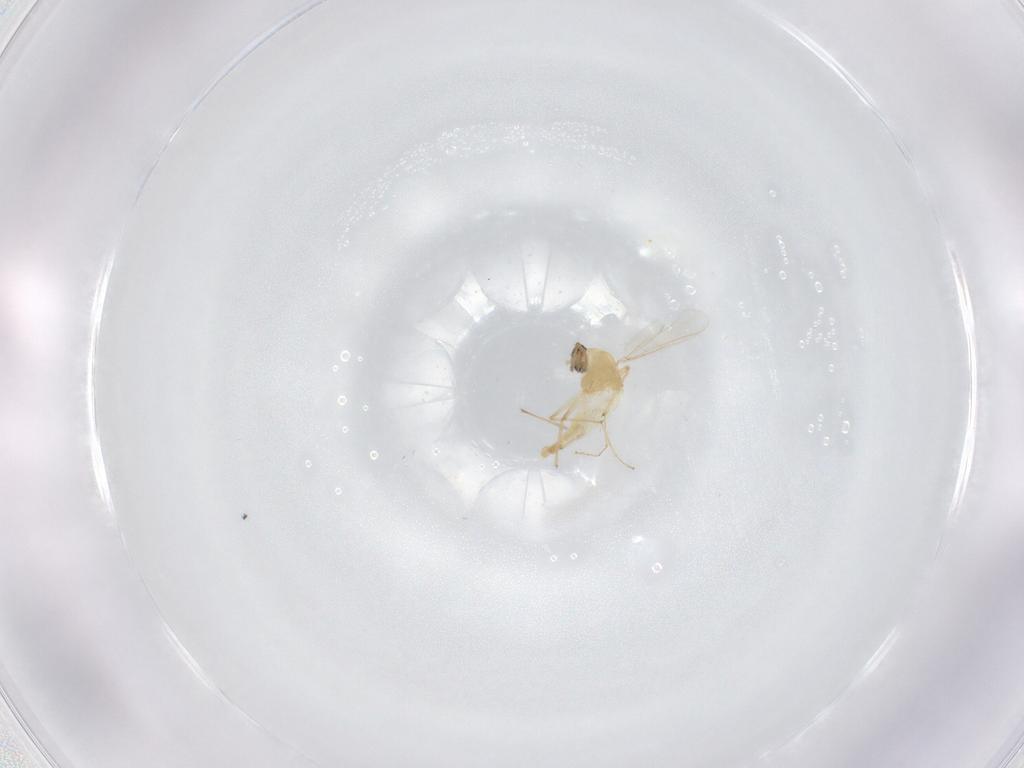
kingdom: Animalia
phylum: Arthropoda
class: Insecta
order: Diptera
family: Chironomidae
